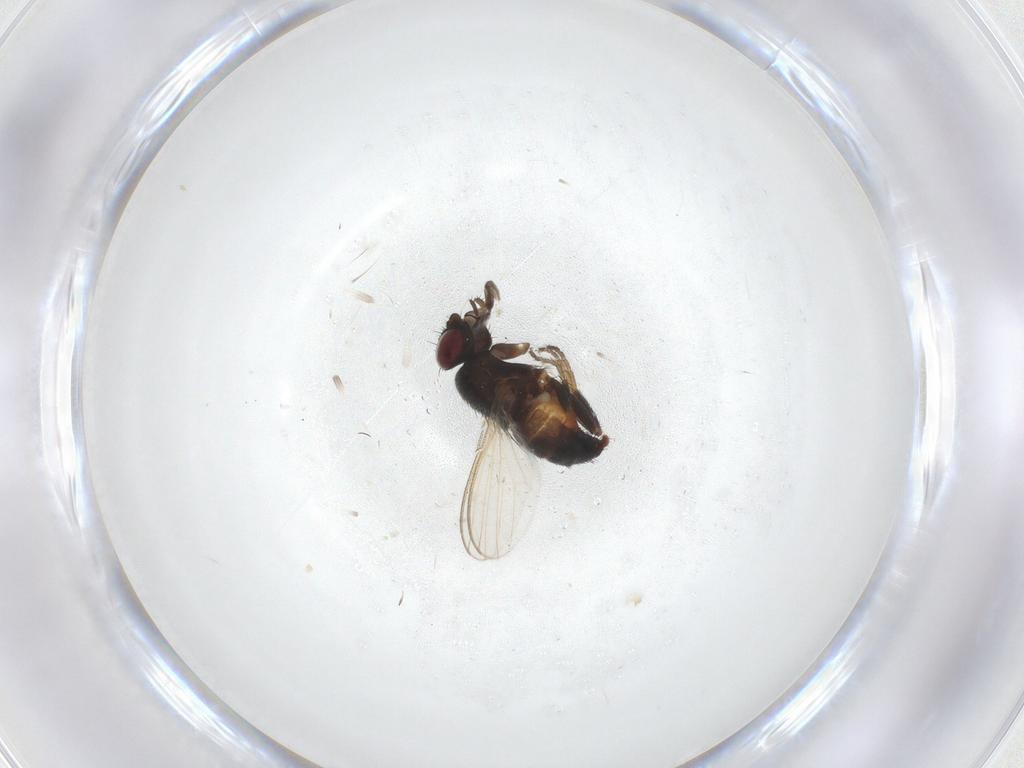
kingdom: Animalia
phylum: Arthropoda
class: Insecta
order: Diptera
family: Milichiidae
